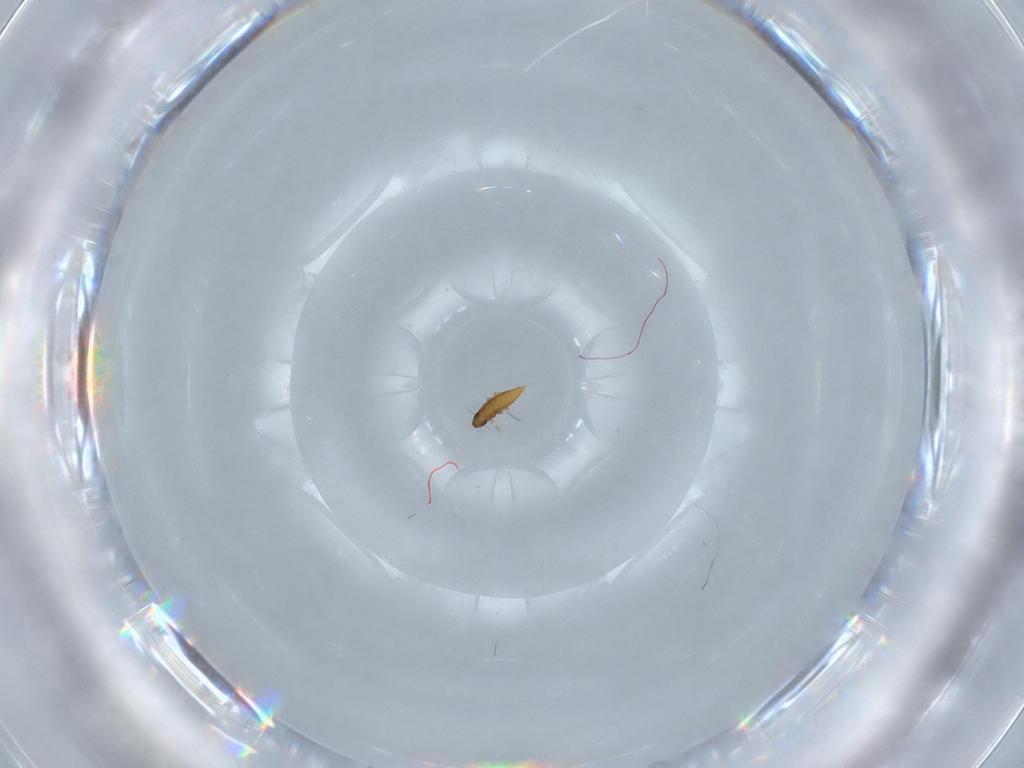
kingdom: Animalia
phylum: Arthropoda
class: Insecta
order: Coleoptera
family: Ripiphoridae
